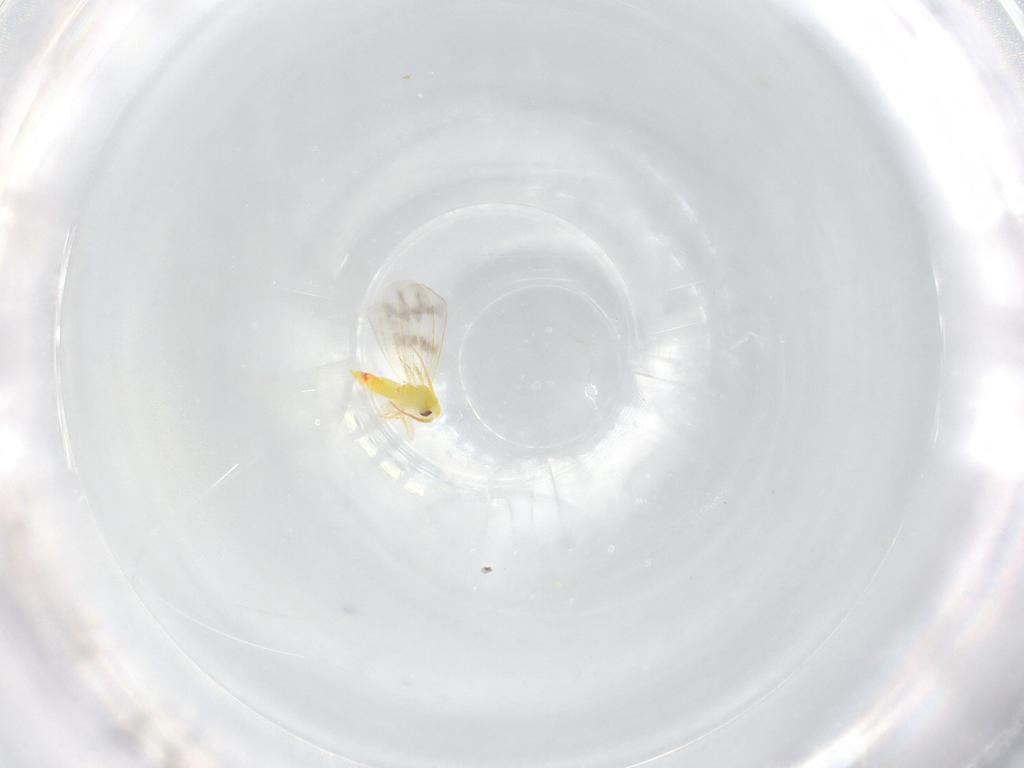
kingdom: Animalia
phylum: Arthropoda
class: Insecta
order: Hemiptera
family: Aleyrodidae
